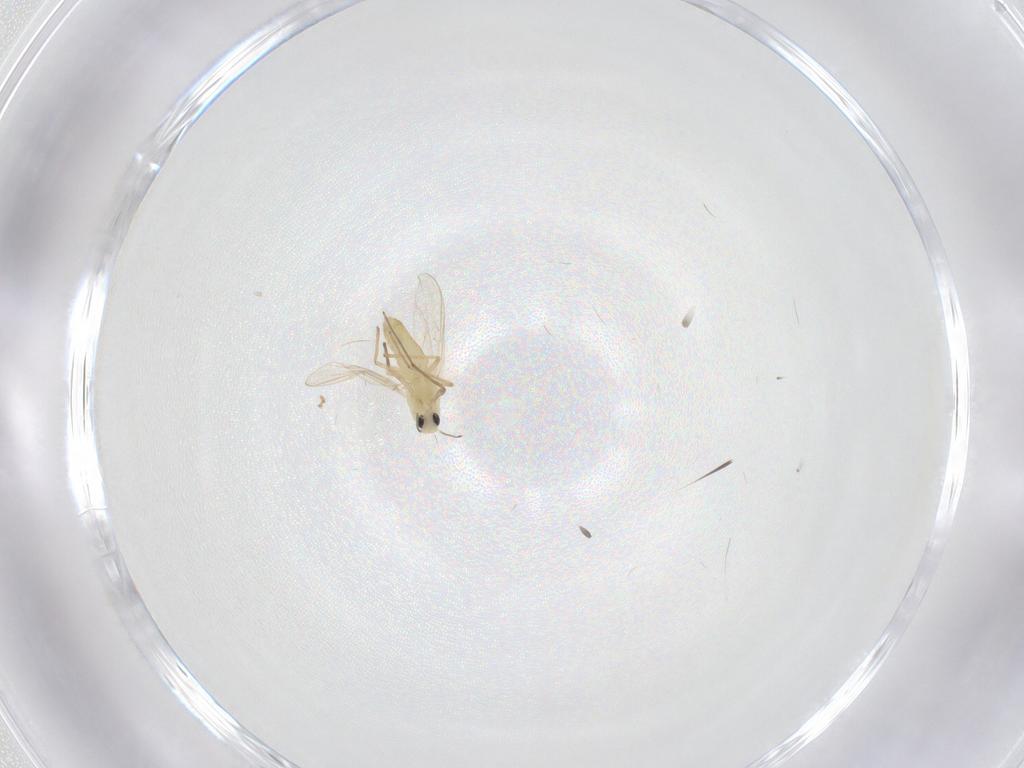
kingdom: Animalia
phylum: Arthropoda
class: Insecta
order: Diptera
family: Chironomidae
